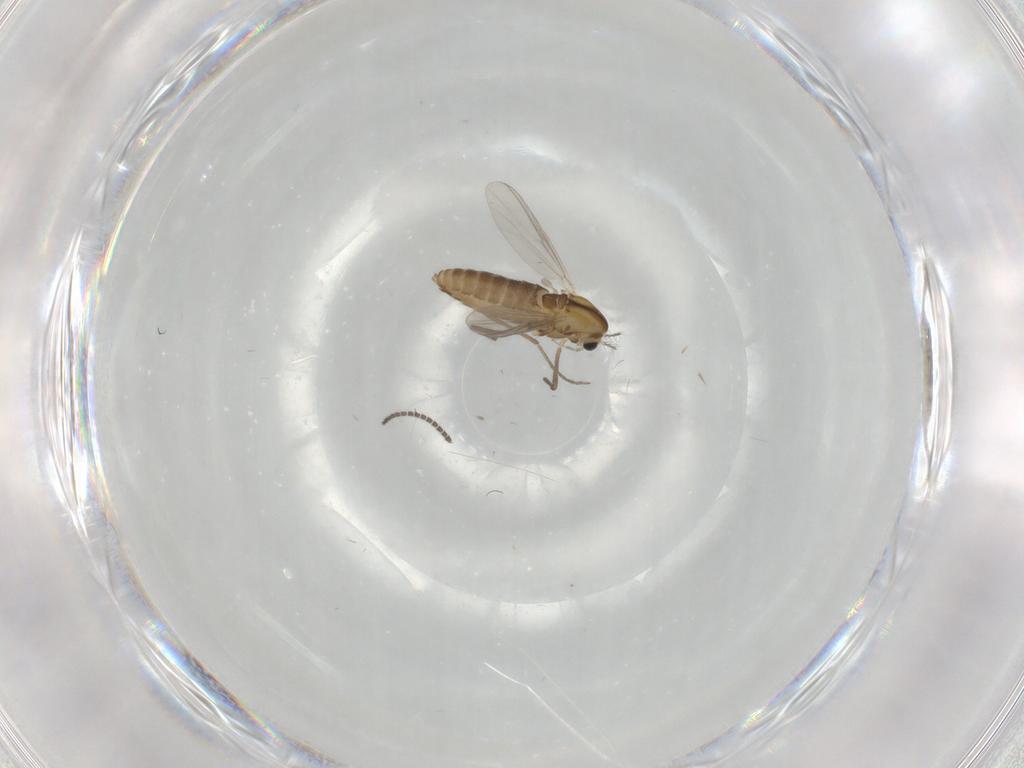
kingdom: Animalia
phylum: Arthropoda
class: Insecta
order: Diptera
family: Chironomidae
